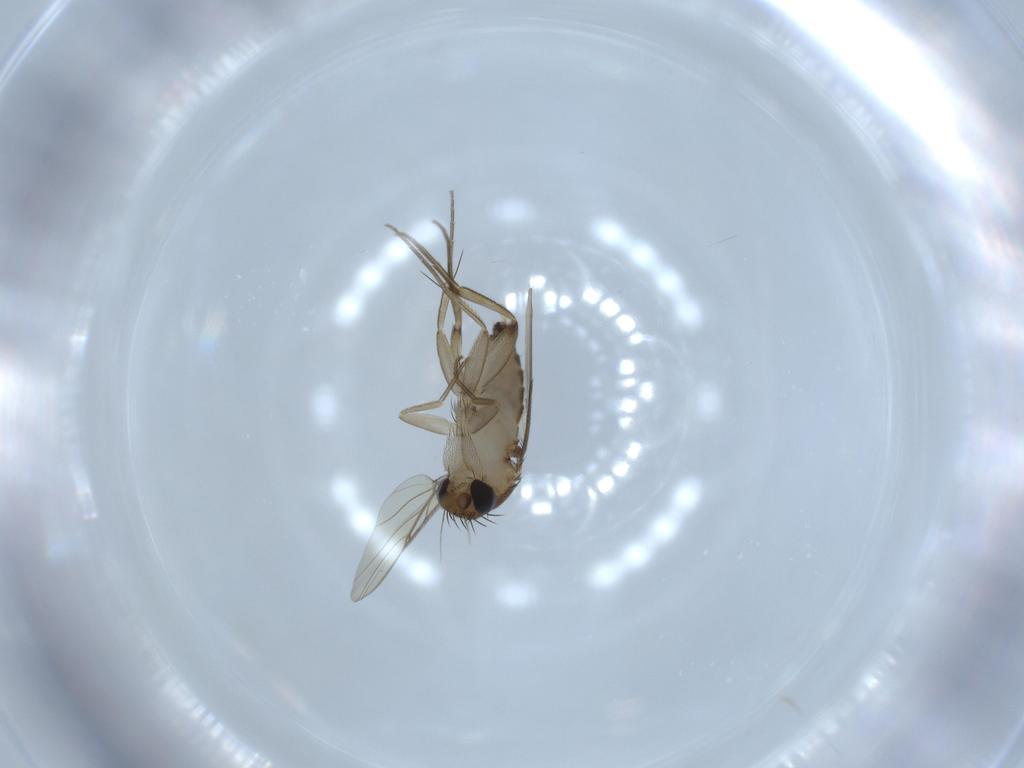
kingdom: Animalia
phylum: Arthropoda
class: Insecta
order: Diptera
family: Phoridae
